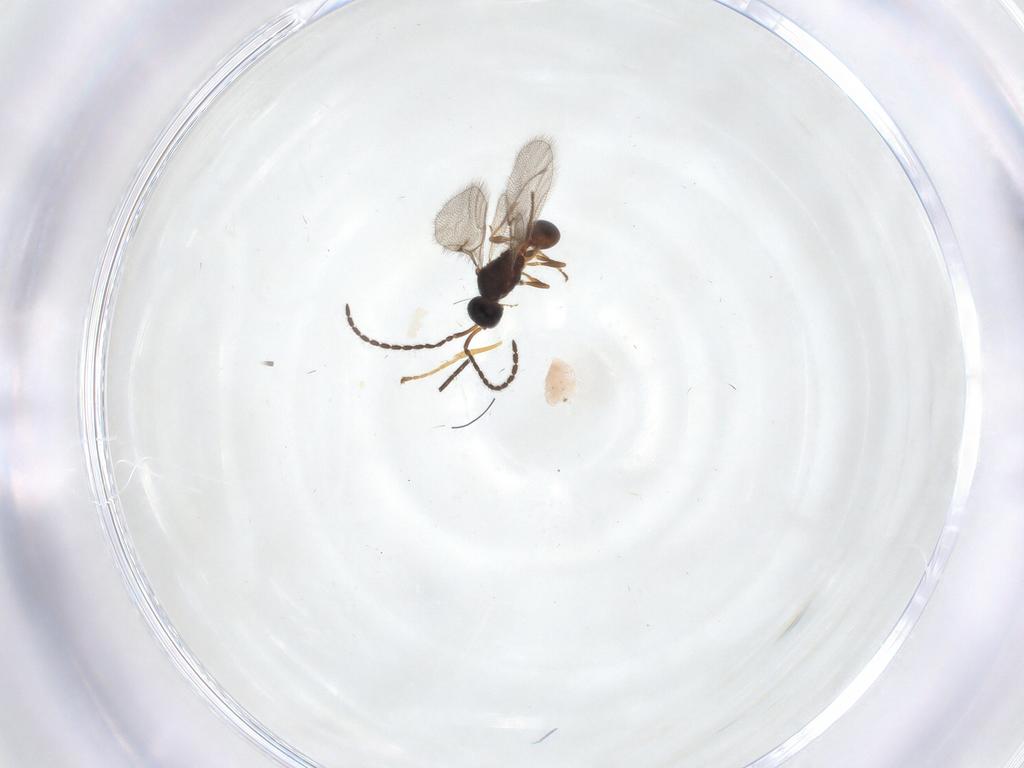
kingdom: Animalia
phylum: Arthropoda
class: Insecta
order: Hymenoptera
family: Diapriidae
